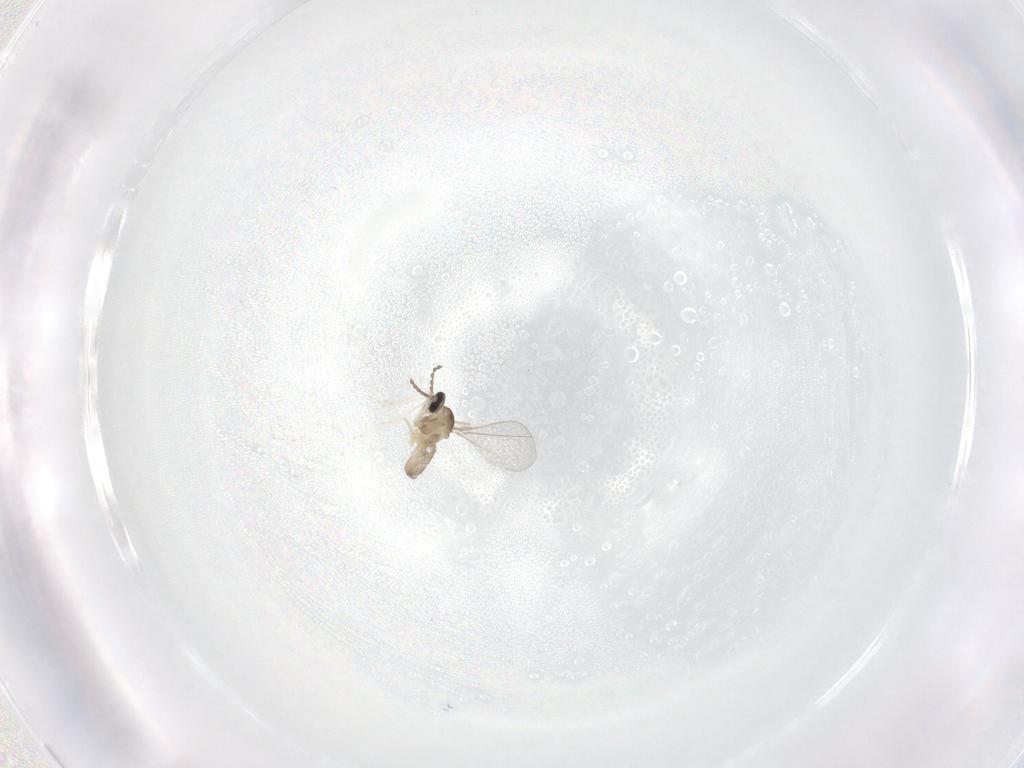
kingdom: Animalia
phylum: Arthropoda
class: Insecta
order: Diptera
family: Cecidomyiidae
